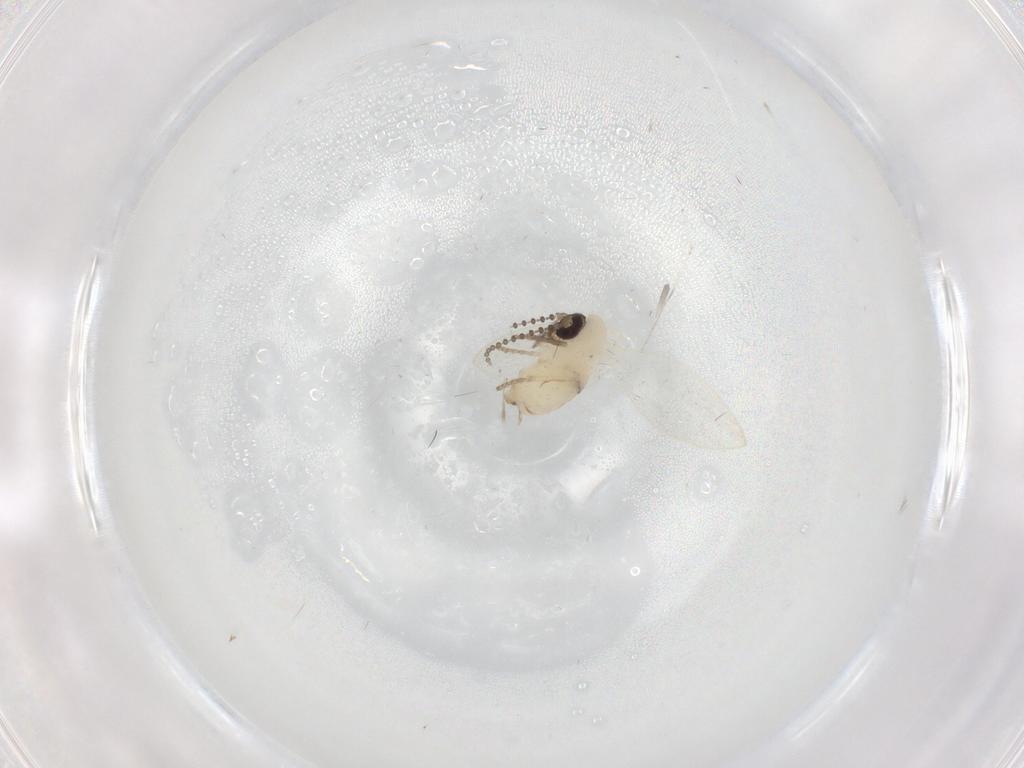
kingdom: Animalia
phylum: Arthropoda
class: Insecta
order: Diptera
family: Cecidomyiidae
